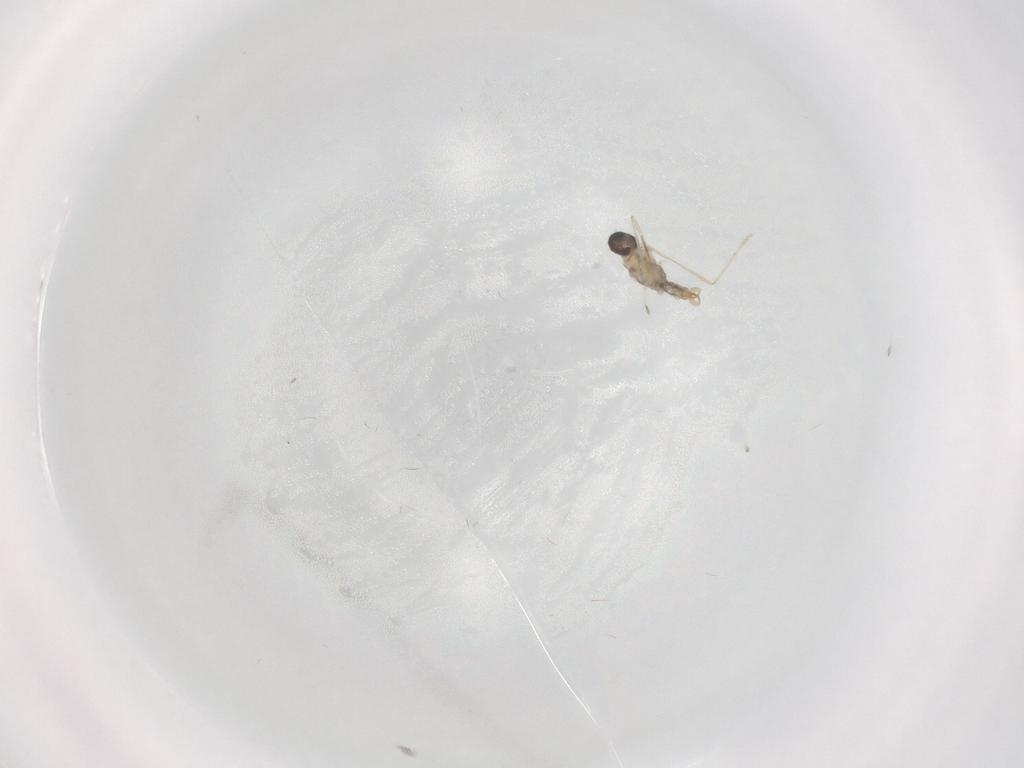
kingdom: Animalia
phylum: Arthropoda
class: Insecta
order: Diptera
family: Cecidomyiidae
